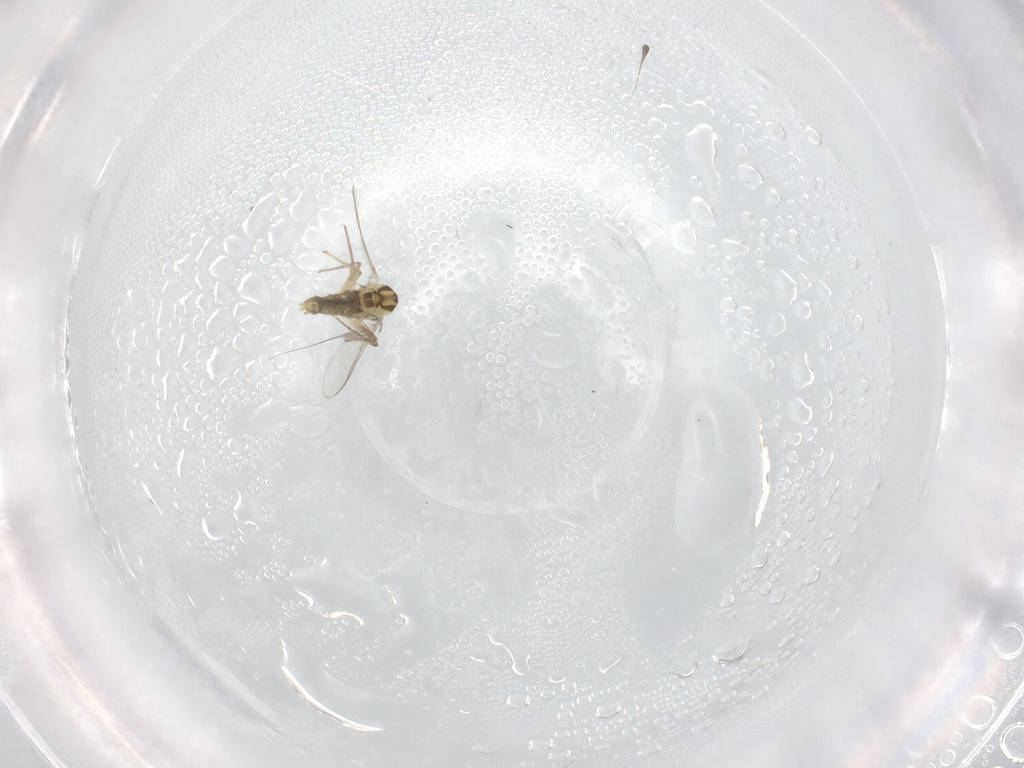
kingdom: Animalia
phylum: Arthropoda
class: Insecta
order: Diptera
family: Chironomidae
